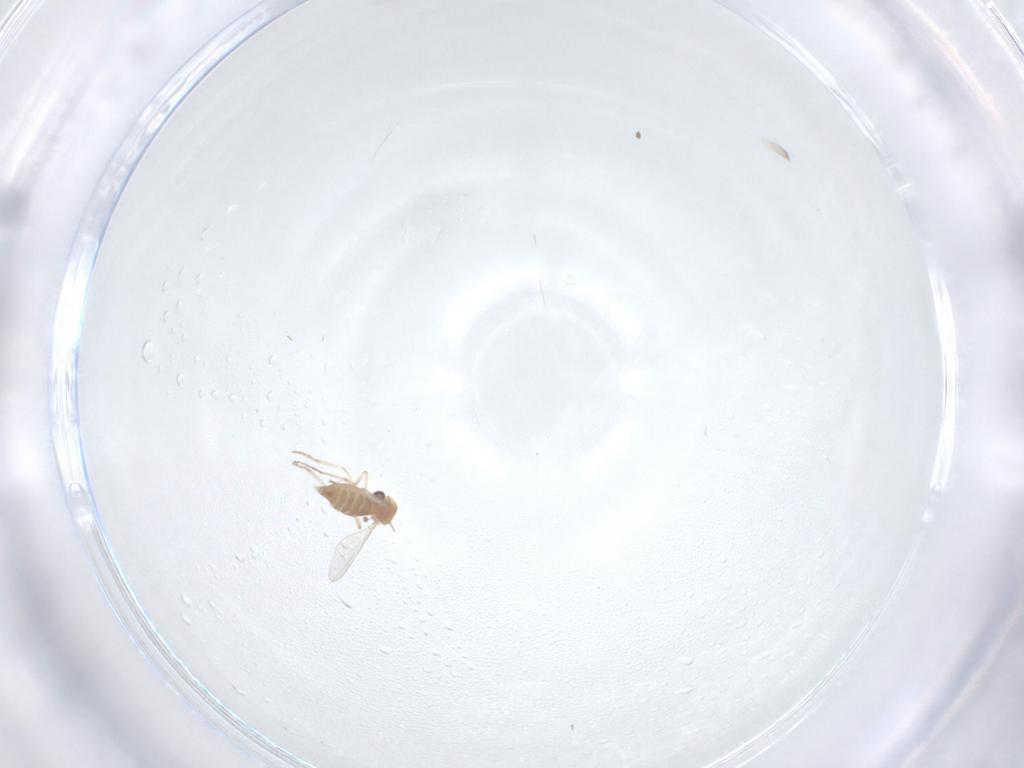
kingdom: Animalia
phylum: Arthropoda
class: Insecta
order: Diptera
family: Ceratopogonidae
